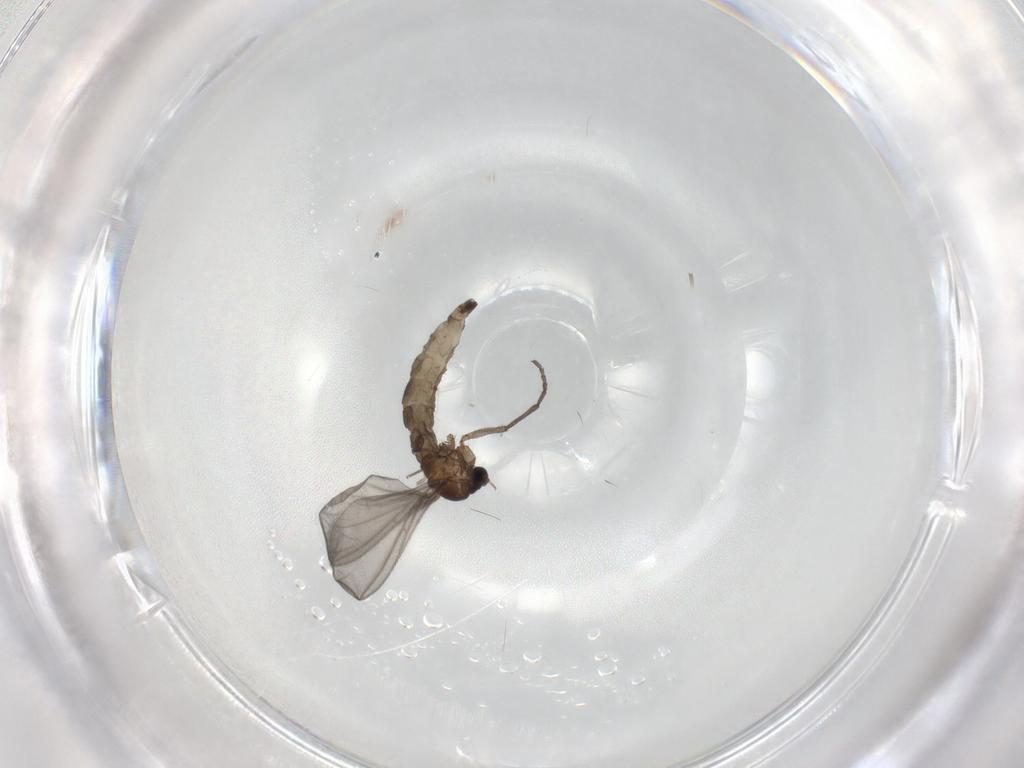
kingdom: Animalia
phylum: Arthropoda
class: Insecta
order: Diptera
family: Sciaridae
